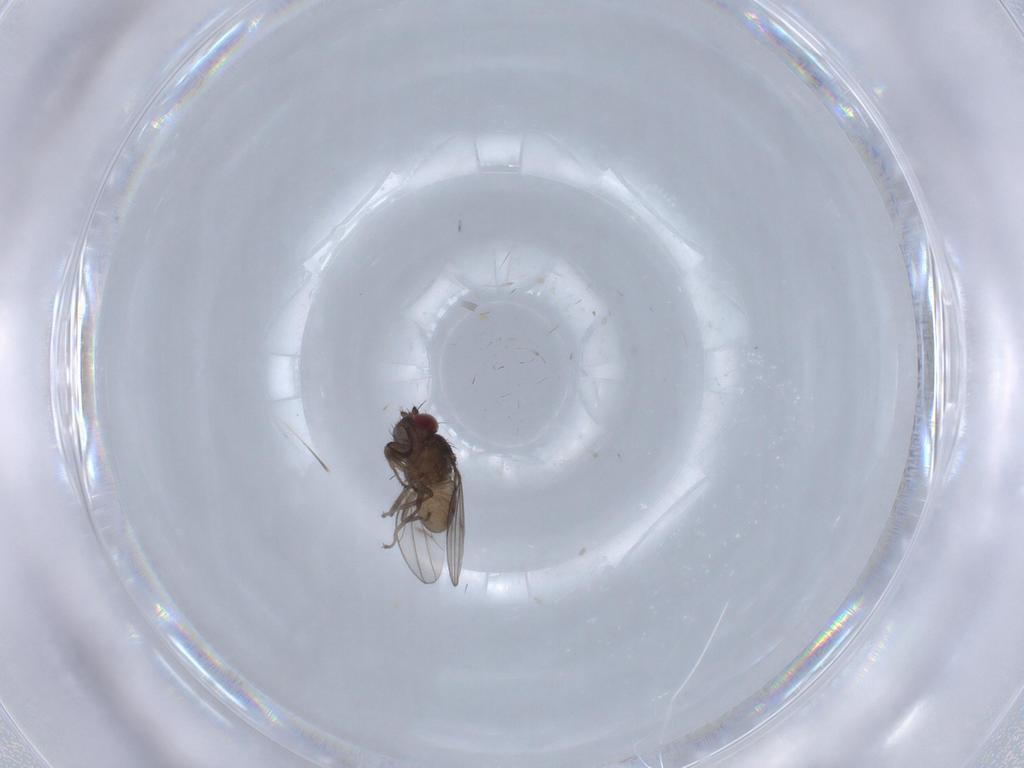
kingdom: Animalia
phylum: Arthropoda
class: Insecta
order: Diptera
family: Ephydridae
